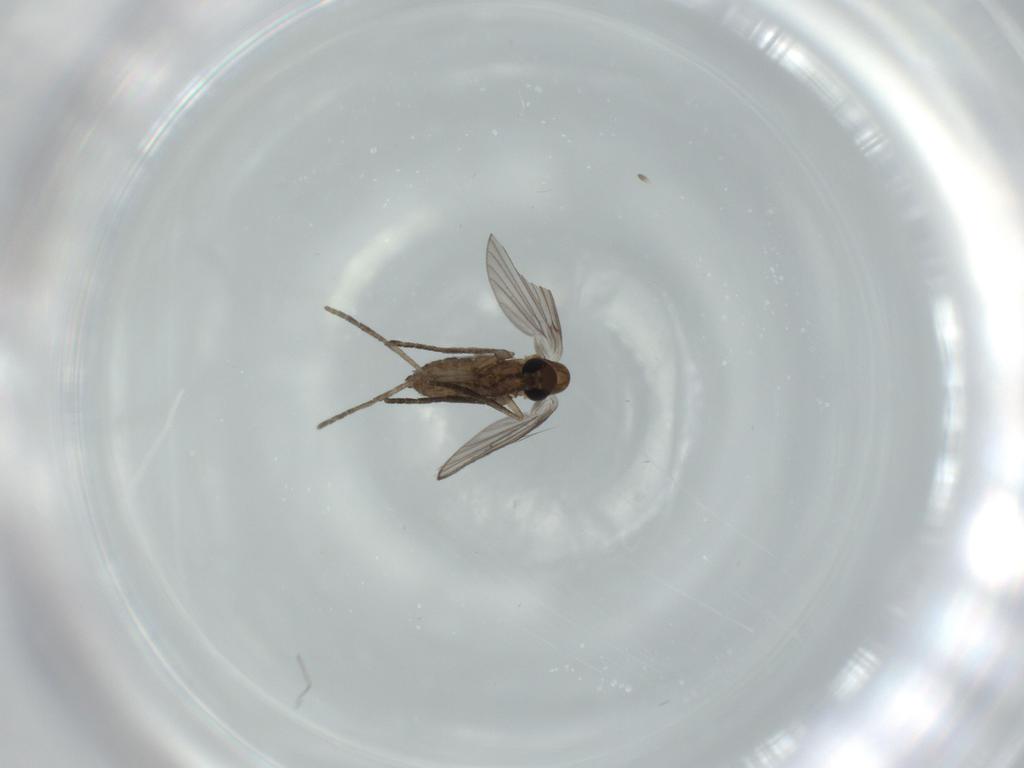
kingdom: Animalia
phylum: Arthropoda
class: Insecta
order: Diptera
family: Psychodidae
